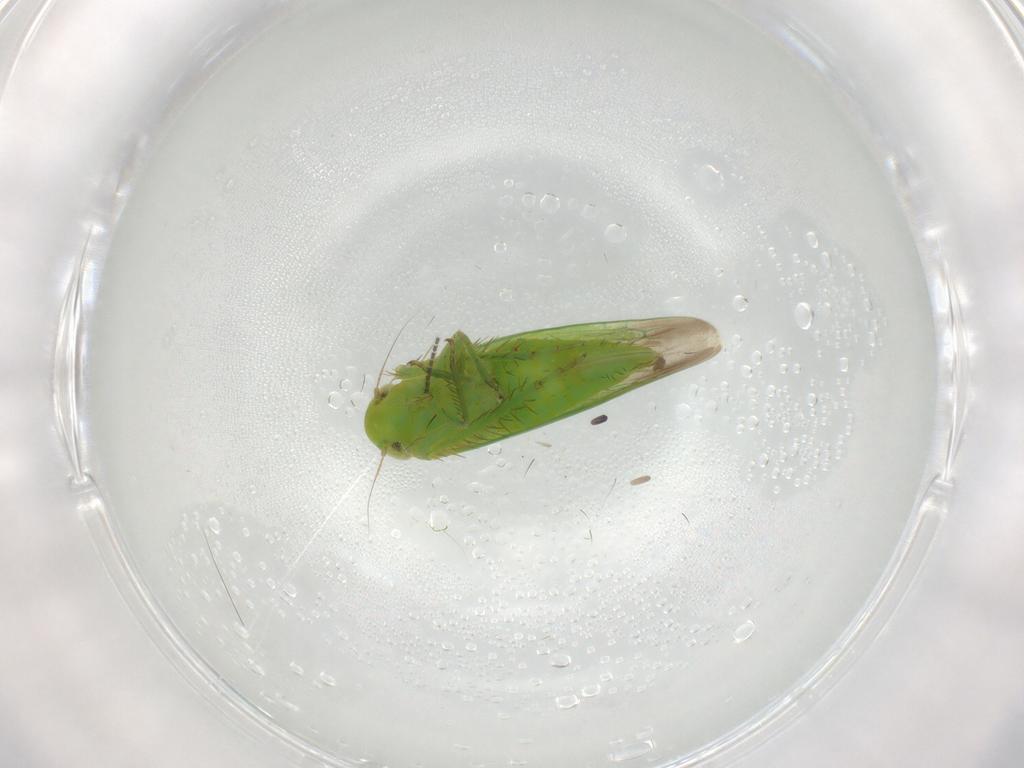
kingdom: Animalia
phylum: Arthropoda
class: Insecta
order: Hemiptera
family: Cicadellidae
